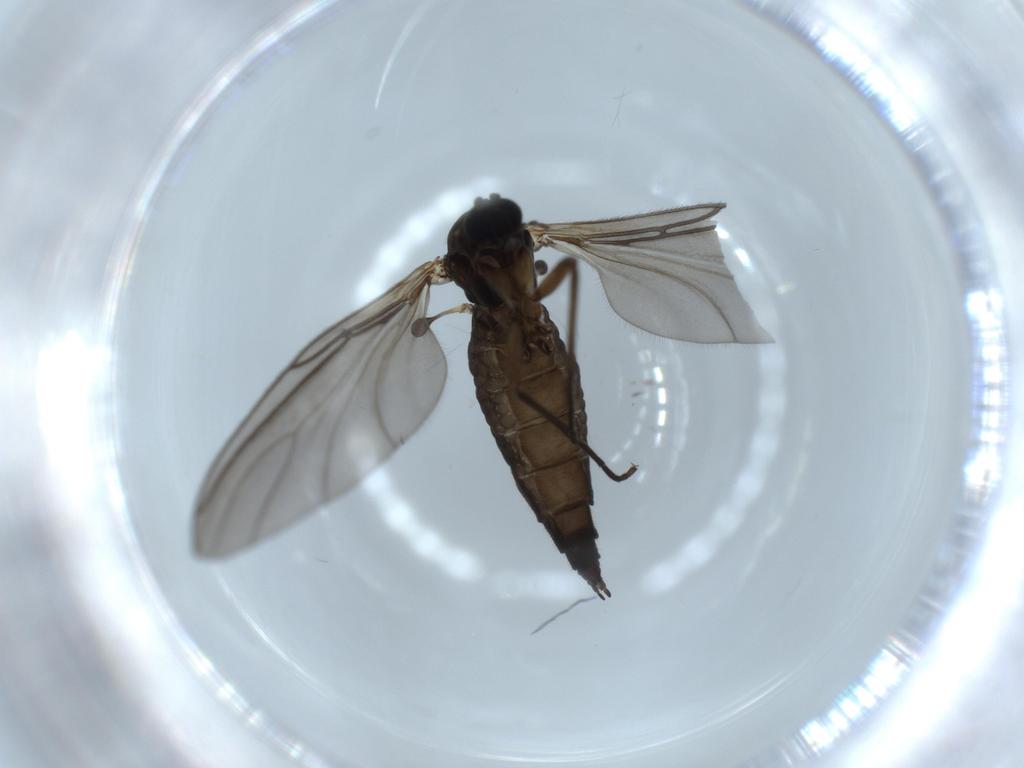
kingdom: Animalia
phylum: Arthropoda
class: Insecta
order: Diptera
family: Sciaridae
